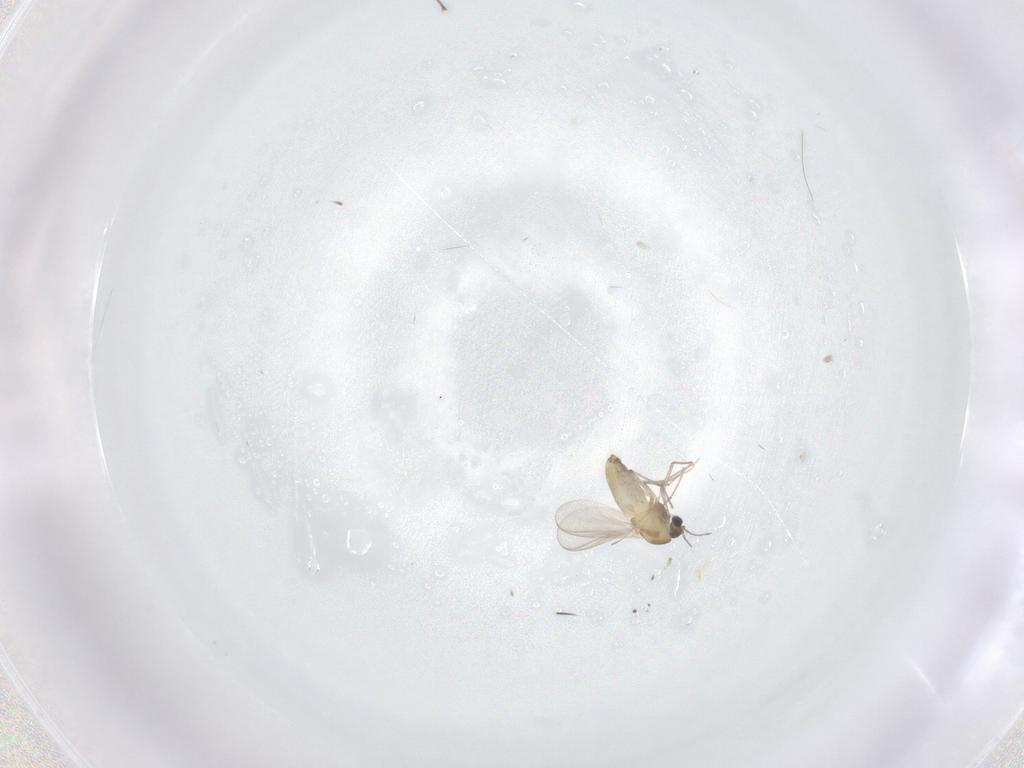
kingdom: Animalia
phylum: Arthropoda
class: Insecta
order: Diptera
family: Chironomidae
